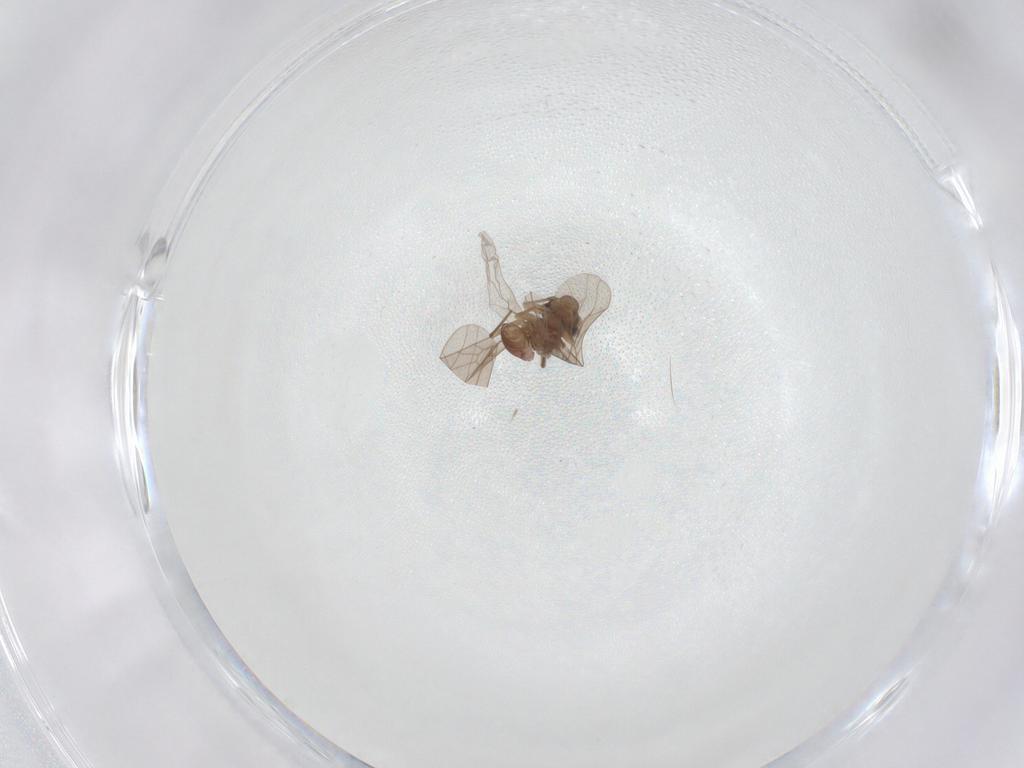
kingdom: Animalia
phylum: Arthropoda
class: Insecta
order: Psocodea
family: Lepidopsocidae
